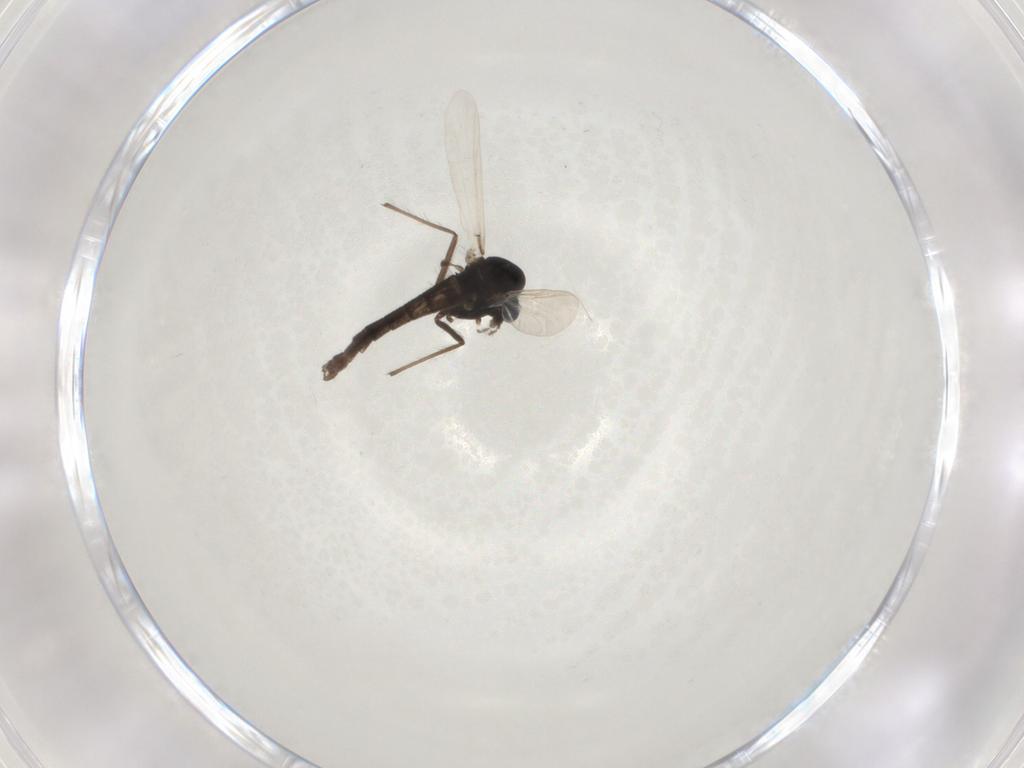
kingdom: Animalia
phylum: Arthropoda
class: Insecta
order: Diptera
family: Chironomidae
